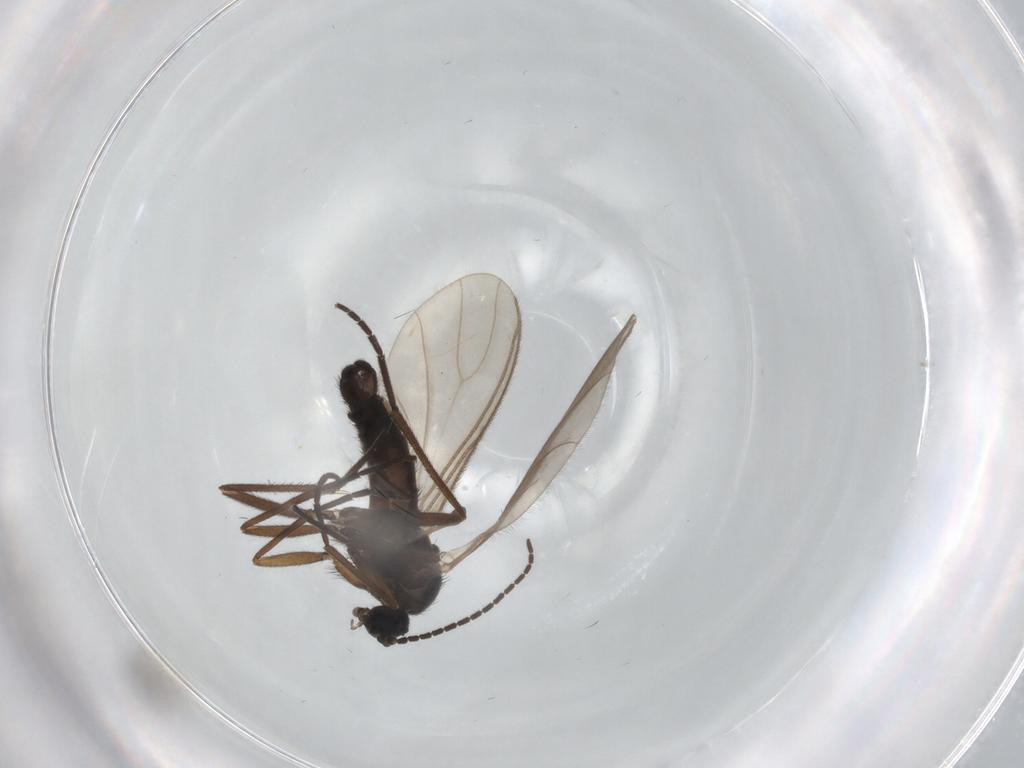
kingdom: Animalia
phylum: Arthropoda
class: Insecta
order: Diptera
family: Sciaridae
